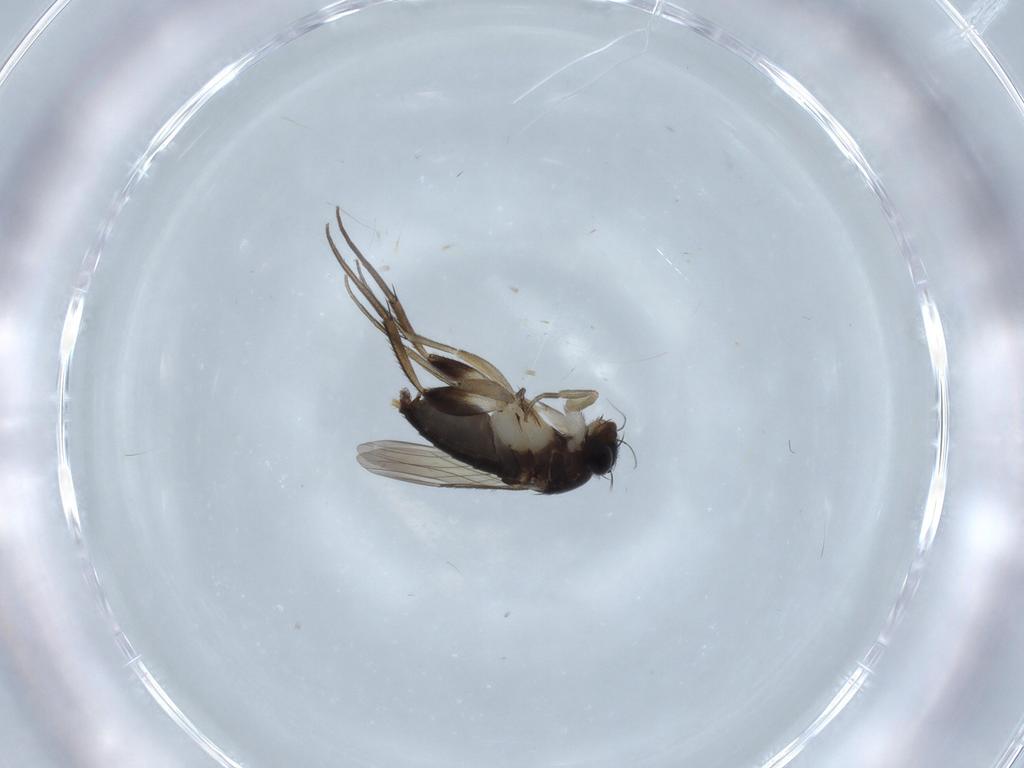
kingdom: Animalia
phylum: Arthropoda
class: Insecta
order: Diptera
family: Phoridae
